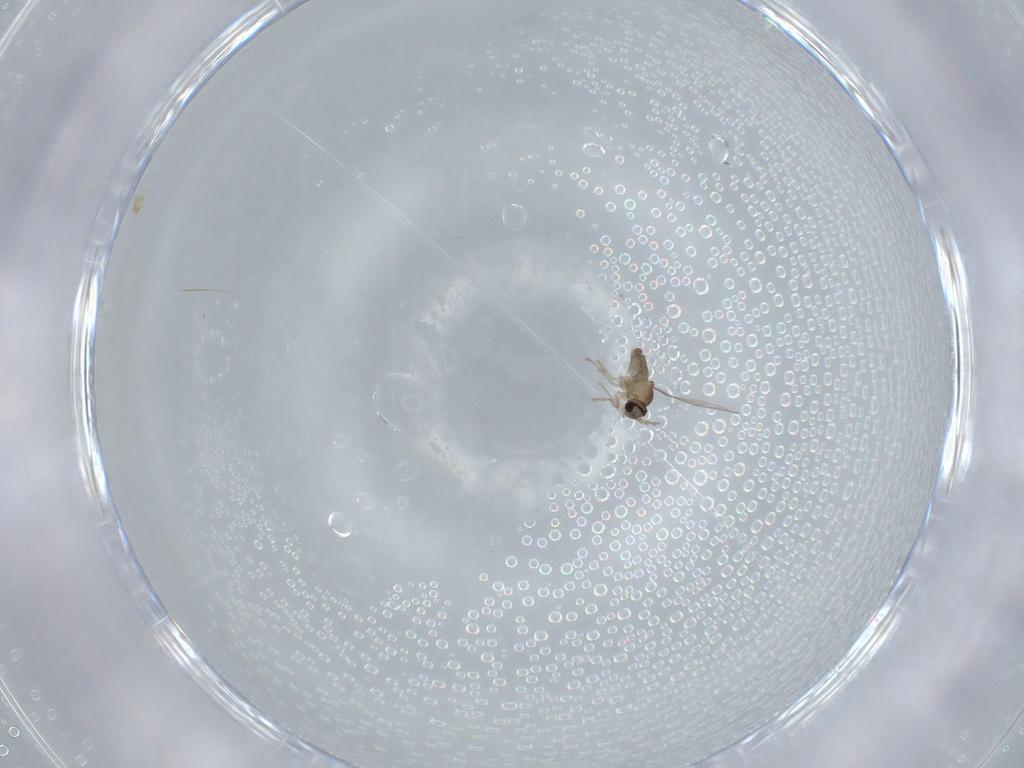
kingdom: Animalia
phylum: Arthropoda
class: Insecta
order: Diptera
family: Cecidomyiidae
